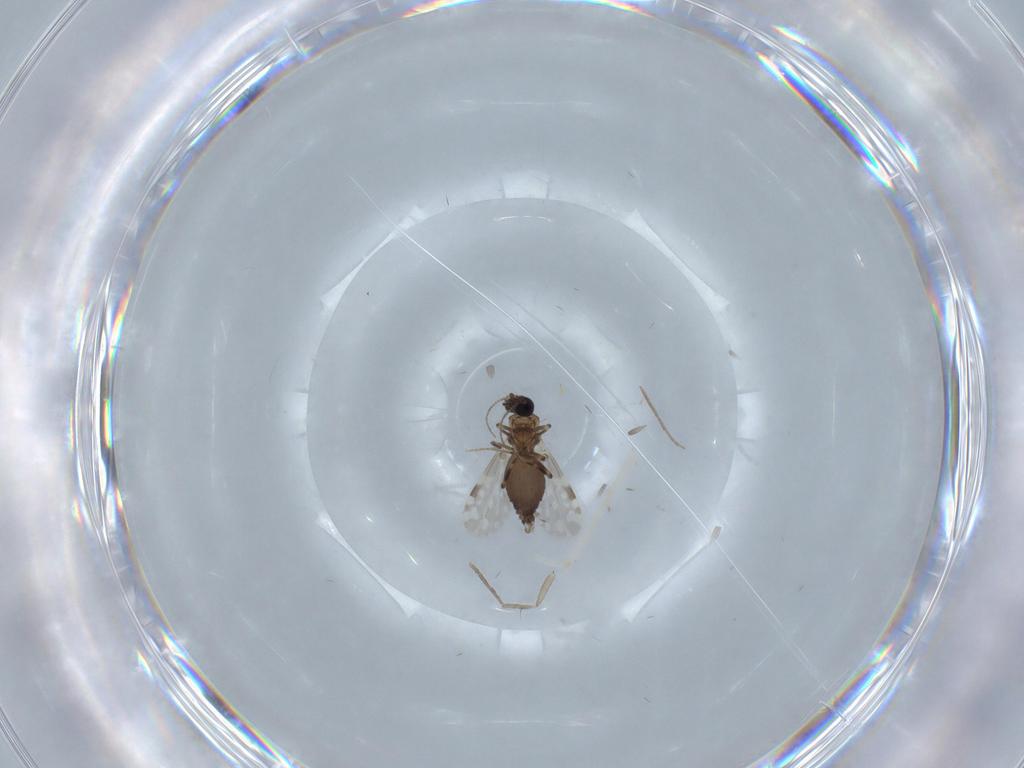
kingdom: Animalia
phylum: Arthropoda
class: Insecta
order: Diptera
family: Ceratopogonidae
